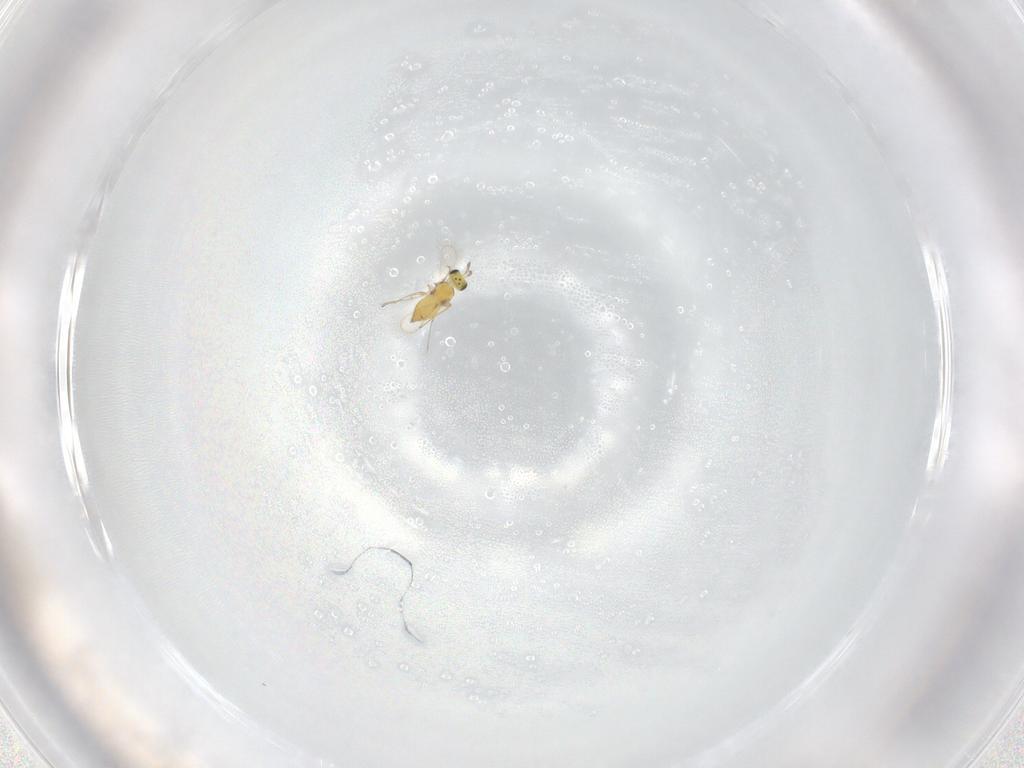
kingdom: Animalia
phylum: Arthropoda
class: Insecta
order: Hymenoptera
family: Trichogrammatidae
